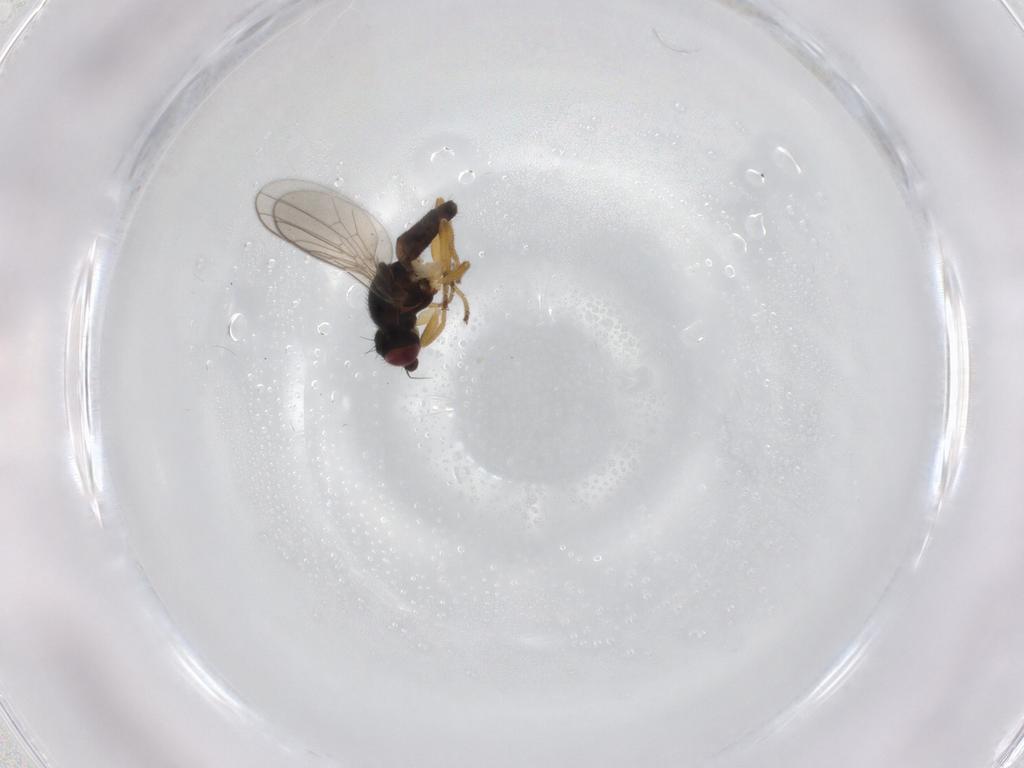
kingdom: Animalia
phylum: Arthropoda
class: Insecta
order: Diptera
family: Chloropidae
